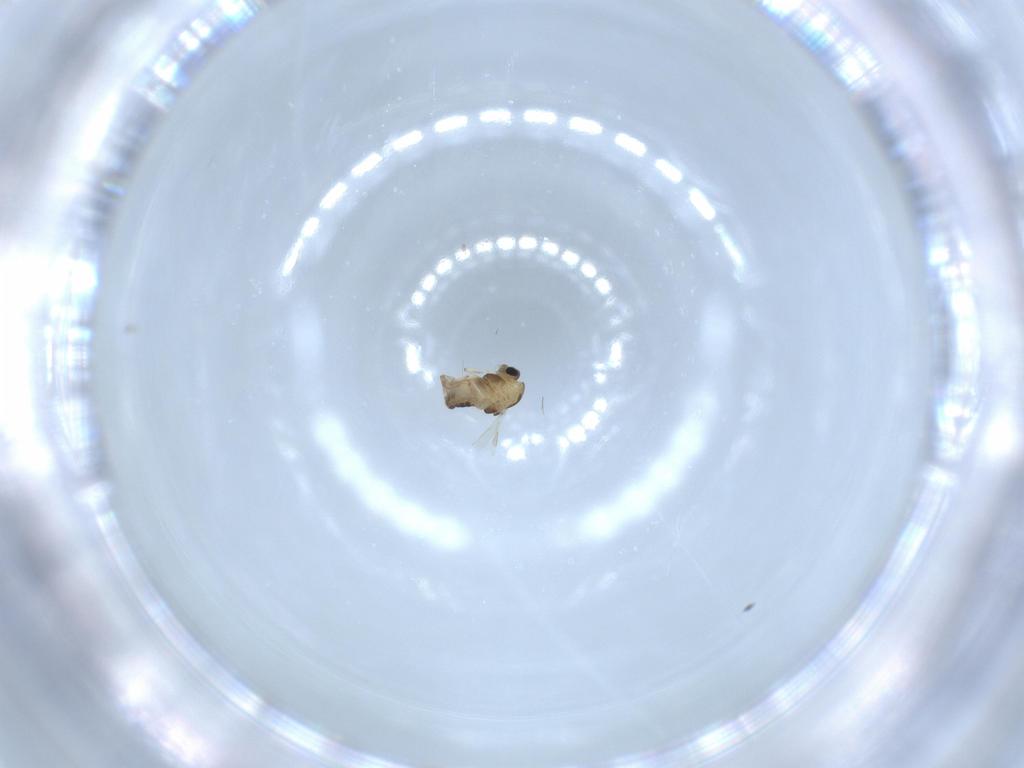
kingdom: Animalia
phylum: Arthropoda
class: Insecta
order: Diptera
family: Chironomidae
